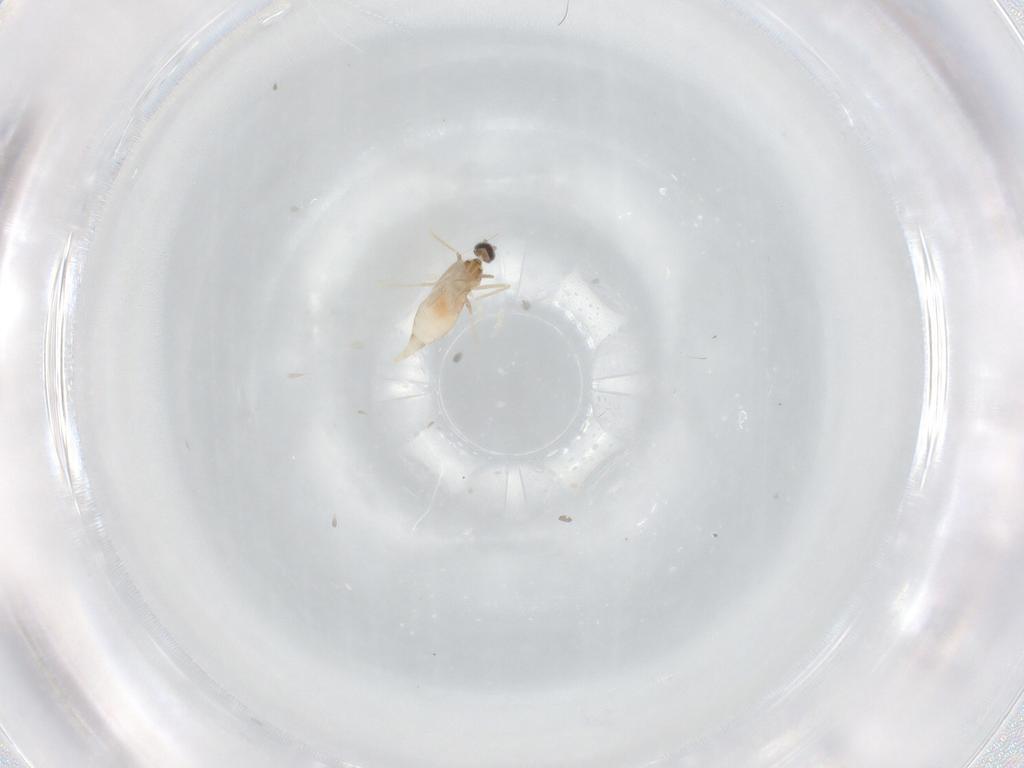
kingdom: Animalia
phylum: Arthropoda
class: Insecta
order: Diptera
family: Cecidomyiidae
